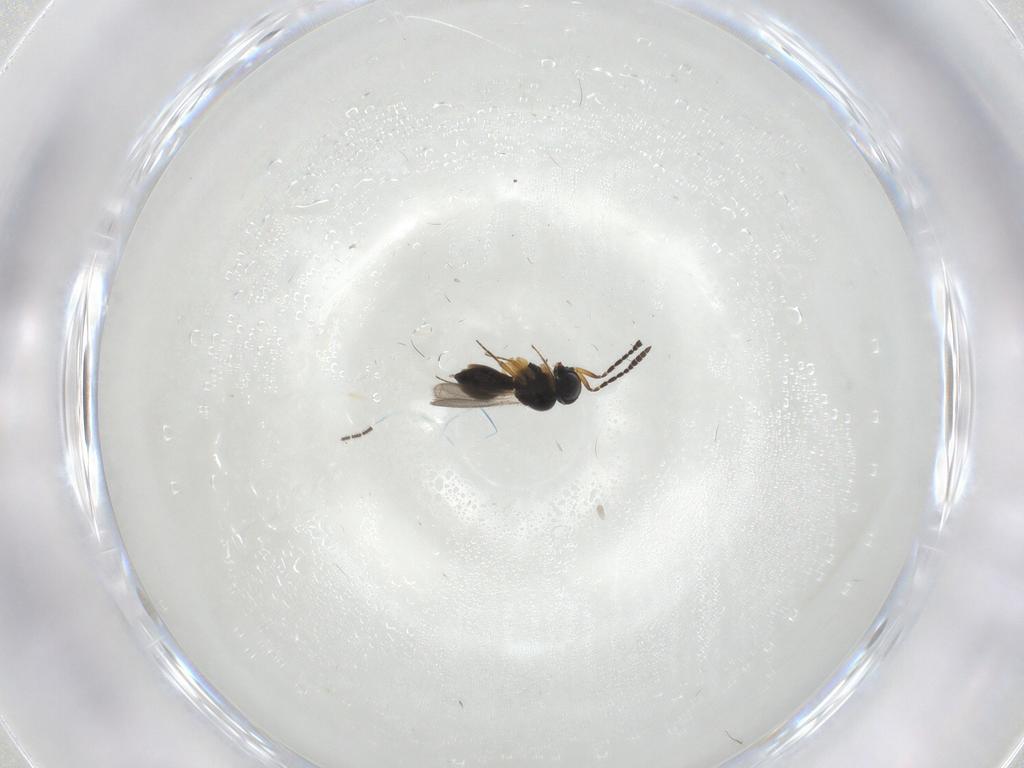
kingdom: Animalia
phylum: Arthropoda
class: Insecta
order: Hymenoptera
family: Scelionidae
